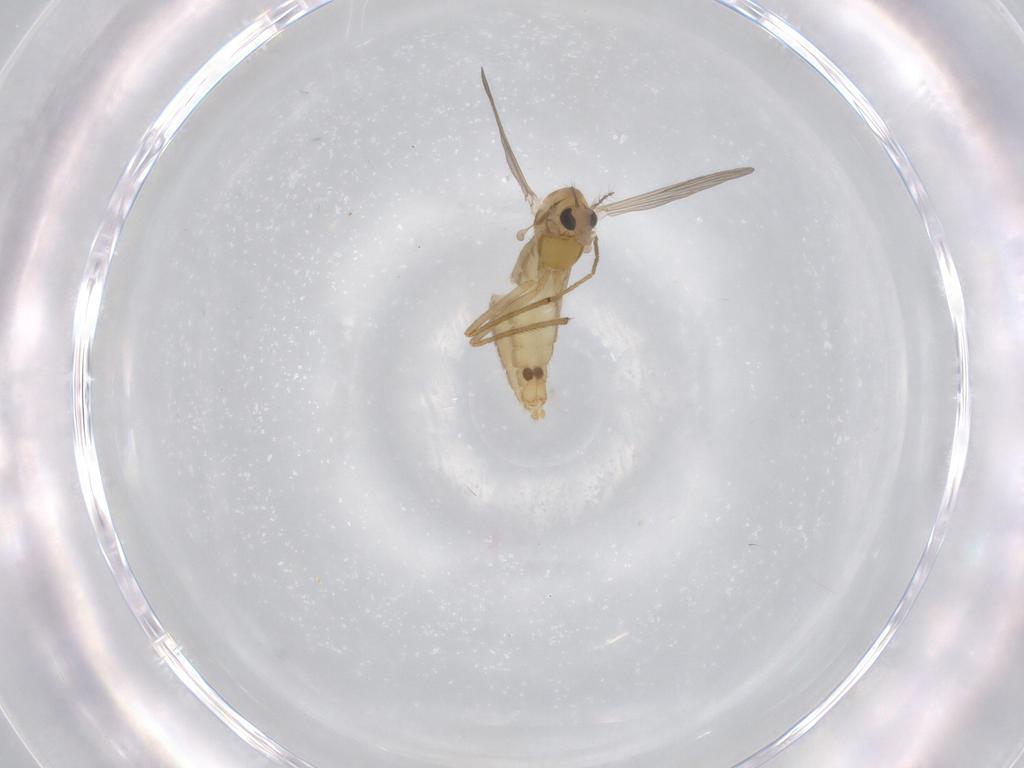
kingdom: Animalia
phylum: Arthropoda
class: Insecta
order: Diptera
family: Chironomidae
